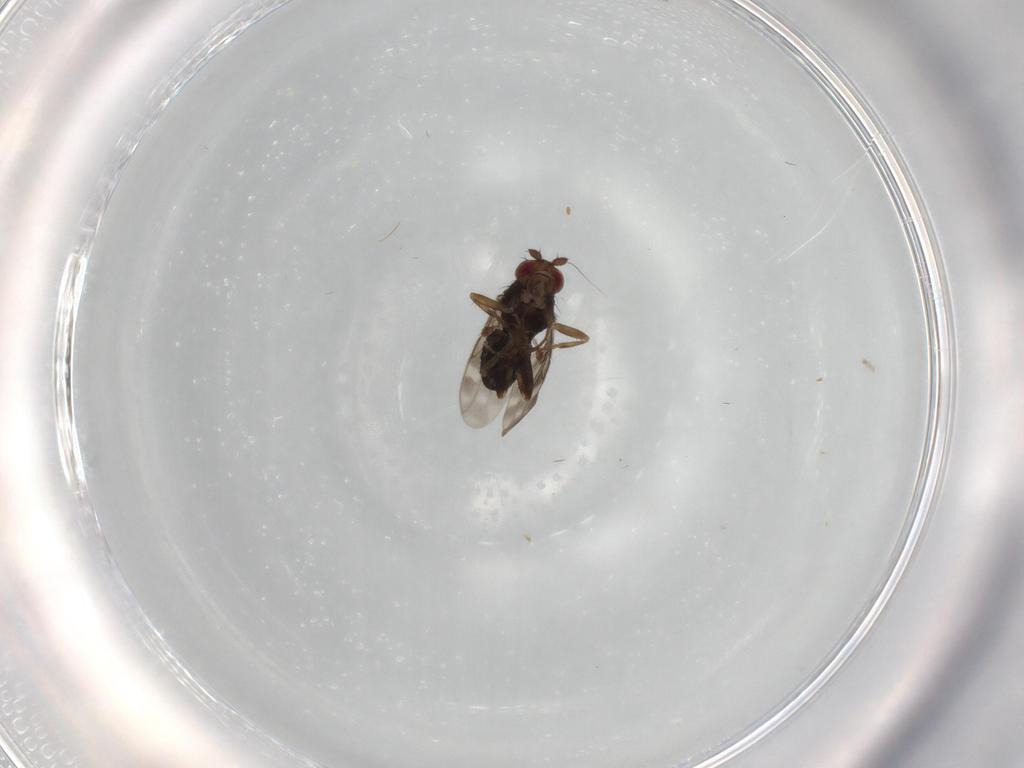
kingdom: Animalia
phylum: Arthropoda
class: Insecta
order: Diptera
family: Sphaeroceridae
